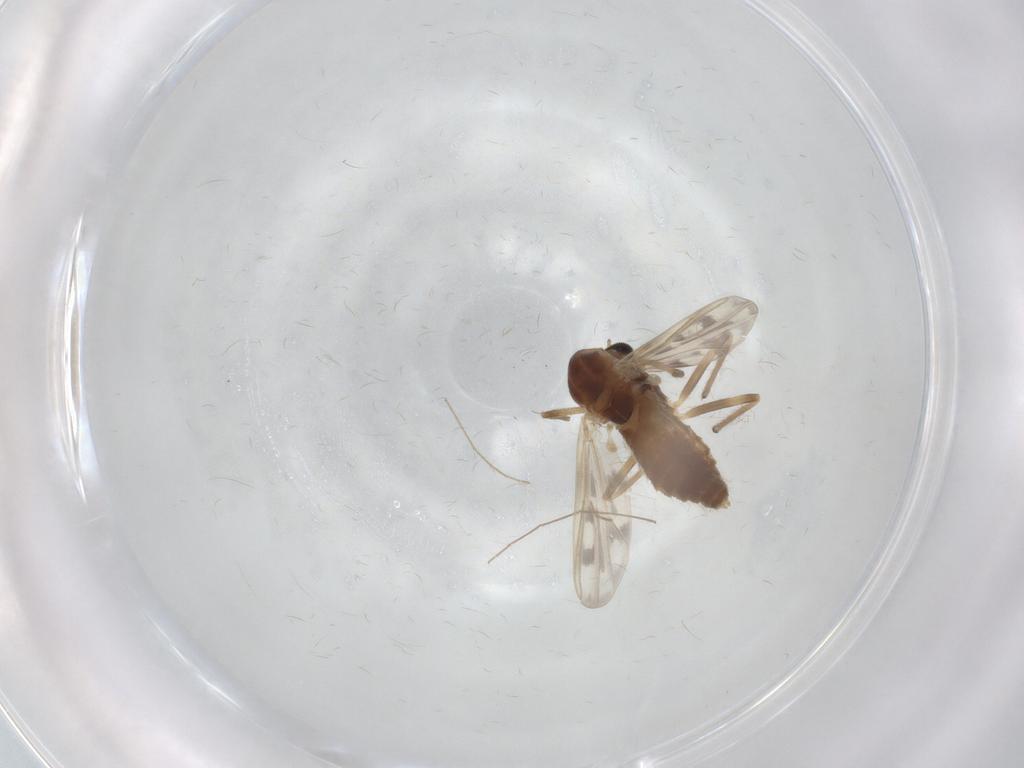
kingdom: Animalia
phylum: Arthropoda
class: Insecta
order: Diptera
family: Chironomidae
